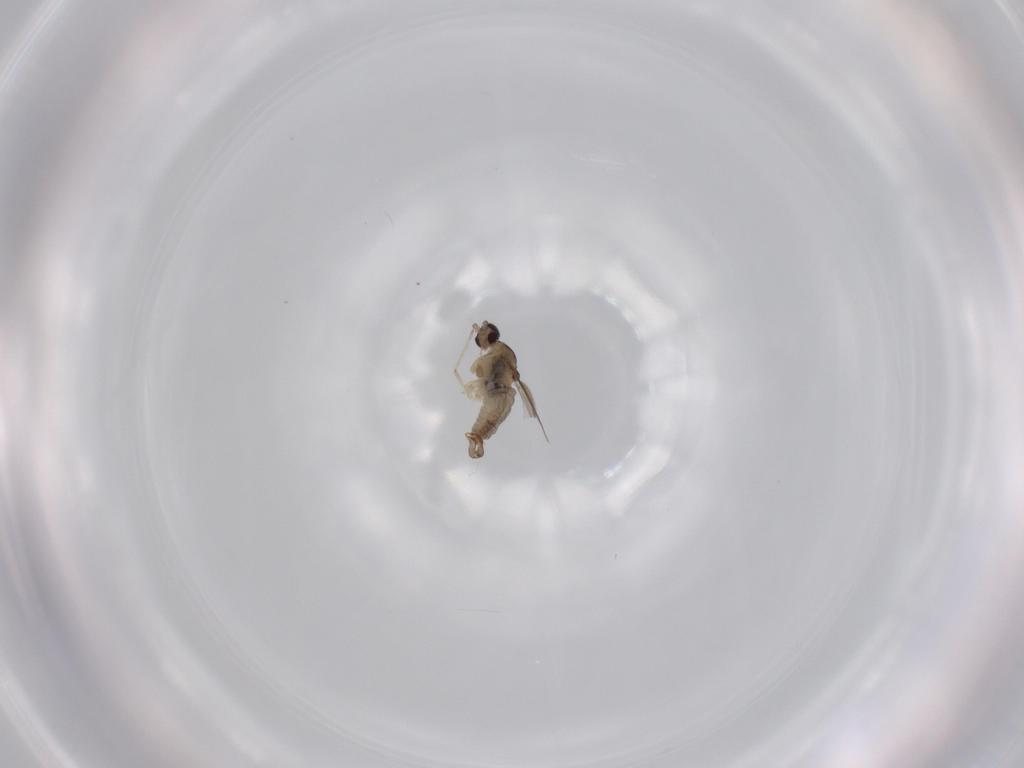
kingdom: Animalia
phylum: Arthropoda
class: Insecta
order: Diptera
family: Cecidomyiidae
